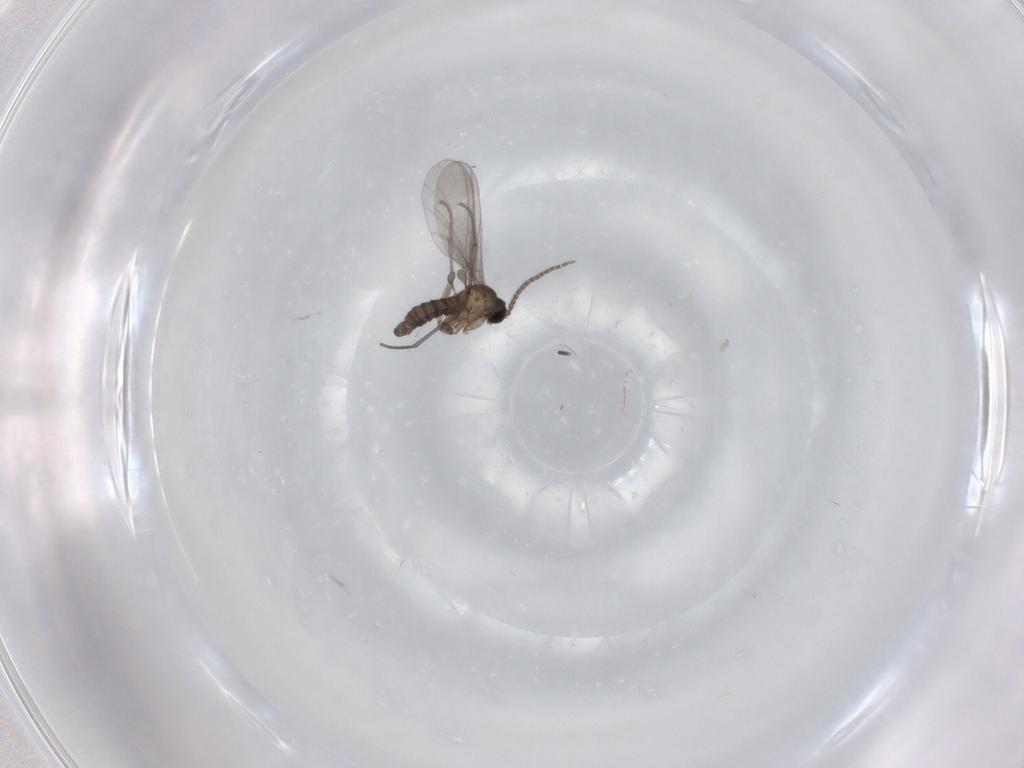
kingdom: Animalia
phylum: Arthropoda
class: Insecta
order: Diptera
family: Sciaridae
